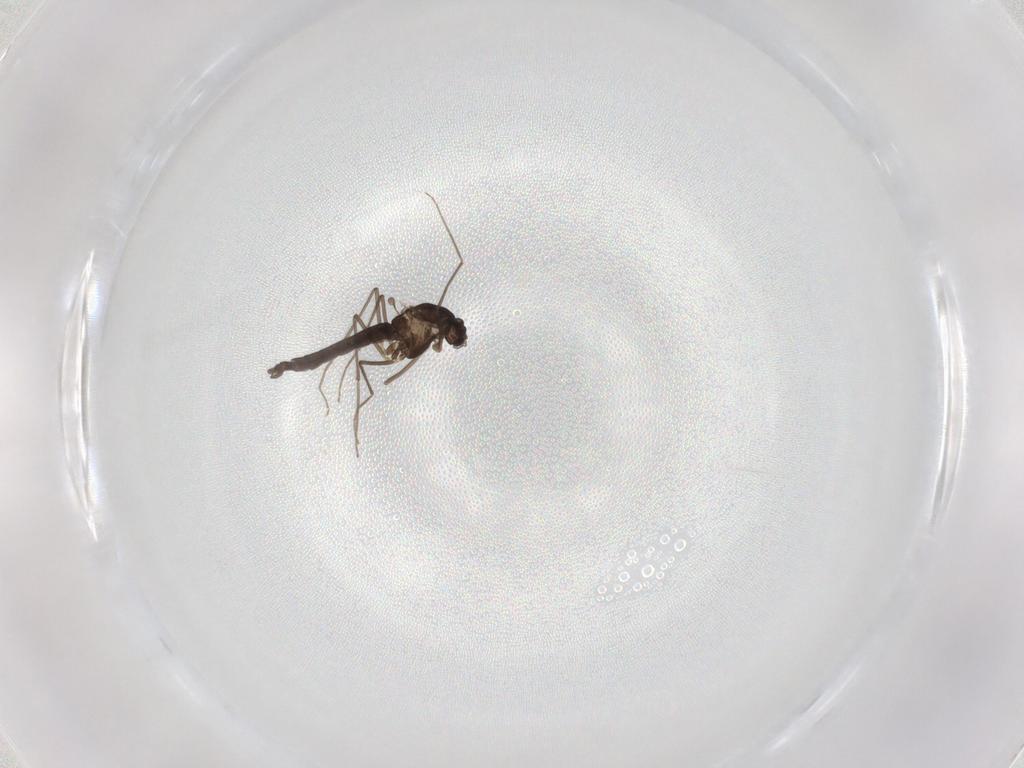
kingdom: Animalia
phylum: Arthropoda
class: Insecta
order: Diptera
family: Chironomidae
